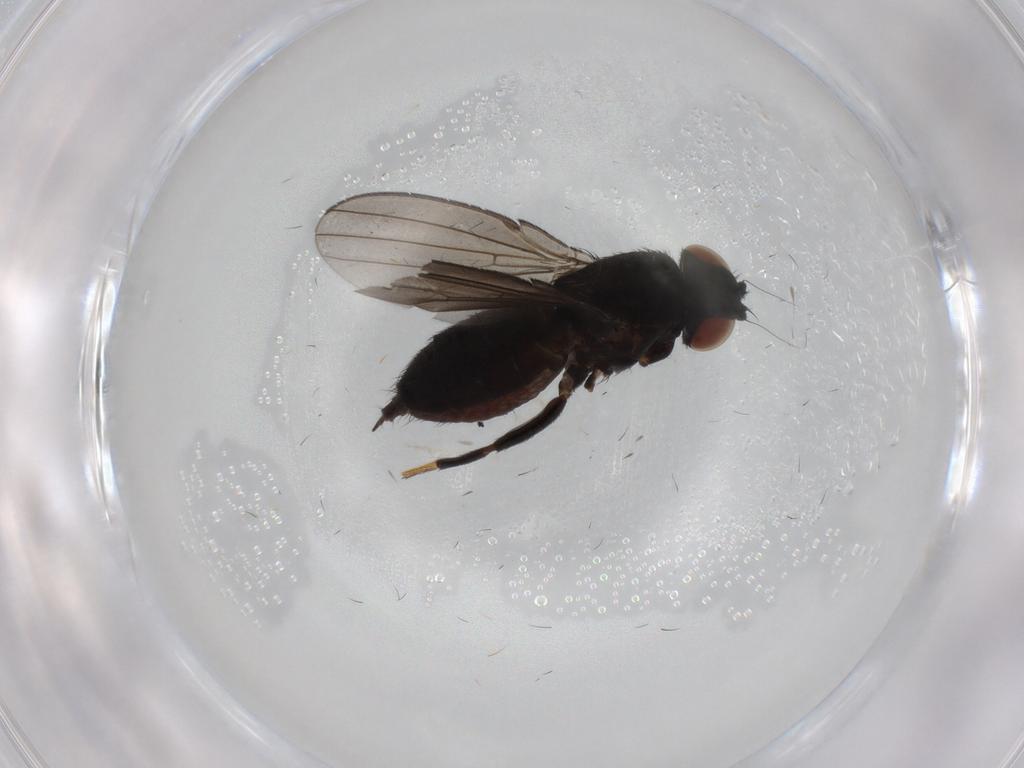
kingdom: Animalia
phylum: Arthropoda
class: Insecta
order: Diptera
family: Milichiidae
